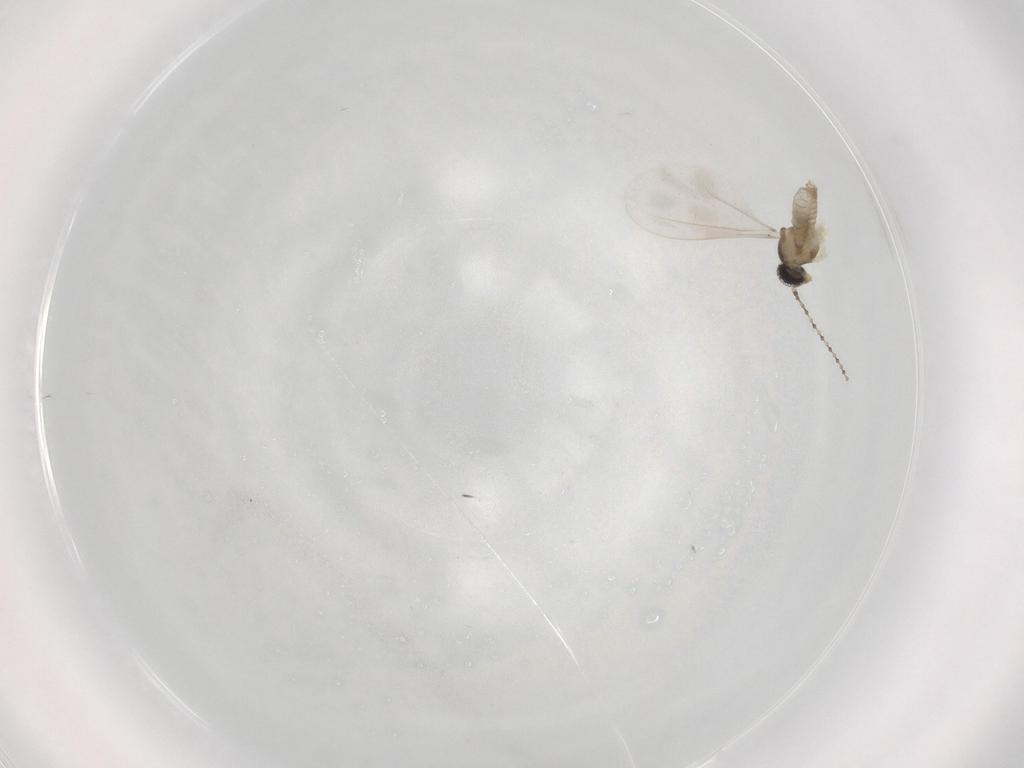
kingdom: Animalia
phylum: Arthropoda
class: Insecta
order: Diptera
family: Cecidomyiidae
